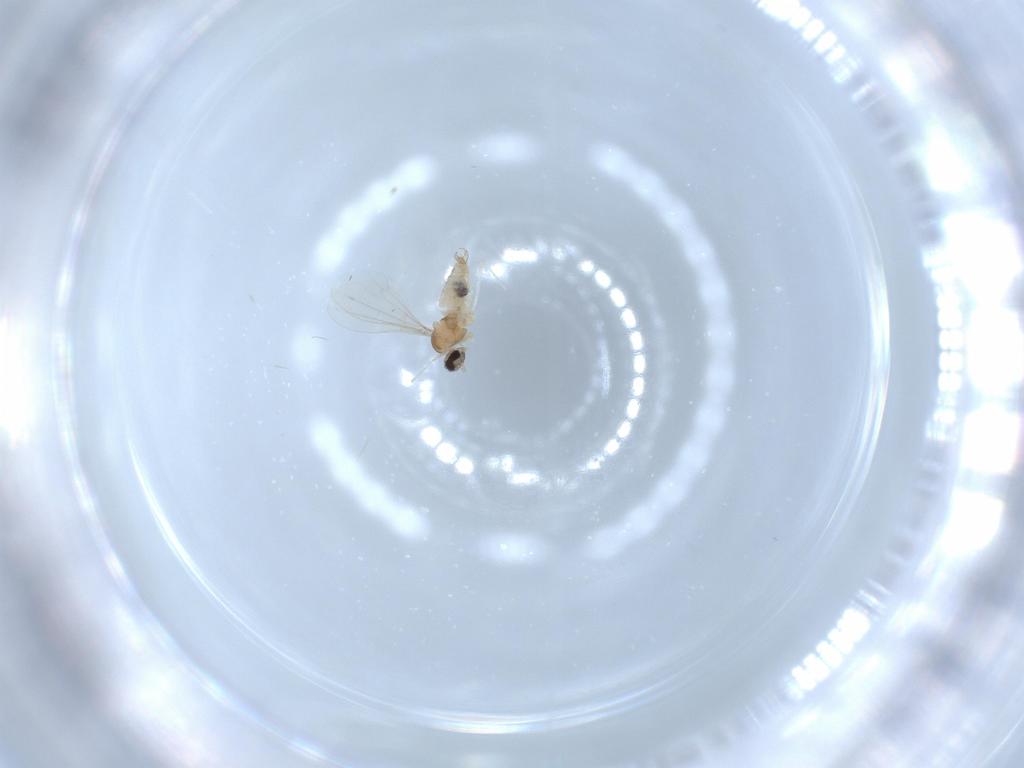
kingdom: Animalia
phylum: Arthropoda
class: Insecta
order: Diptera
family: Cecidomyiidae
